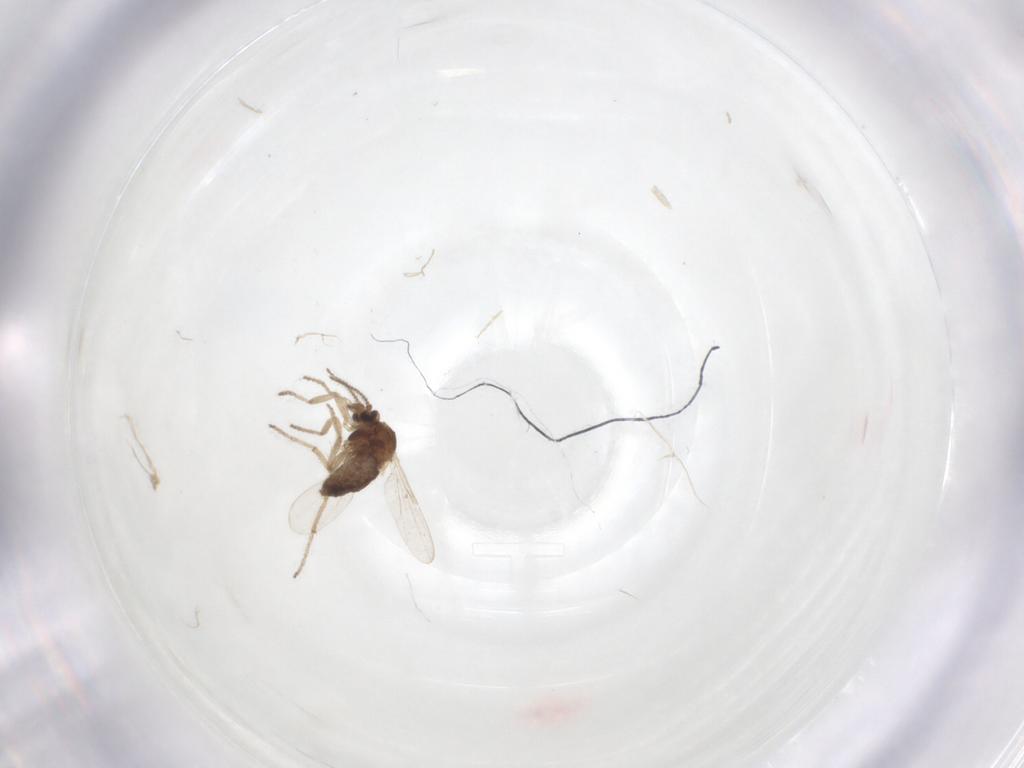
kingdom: Animalia
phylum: Arthropoda
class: Insecta
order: Diptera
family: Ceratopogonidae
